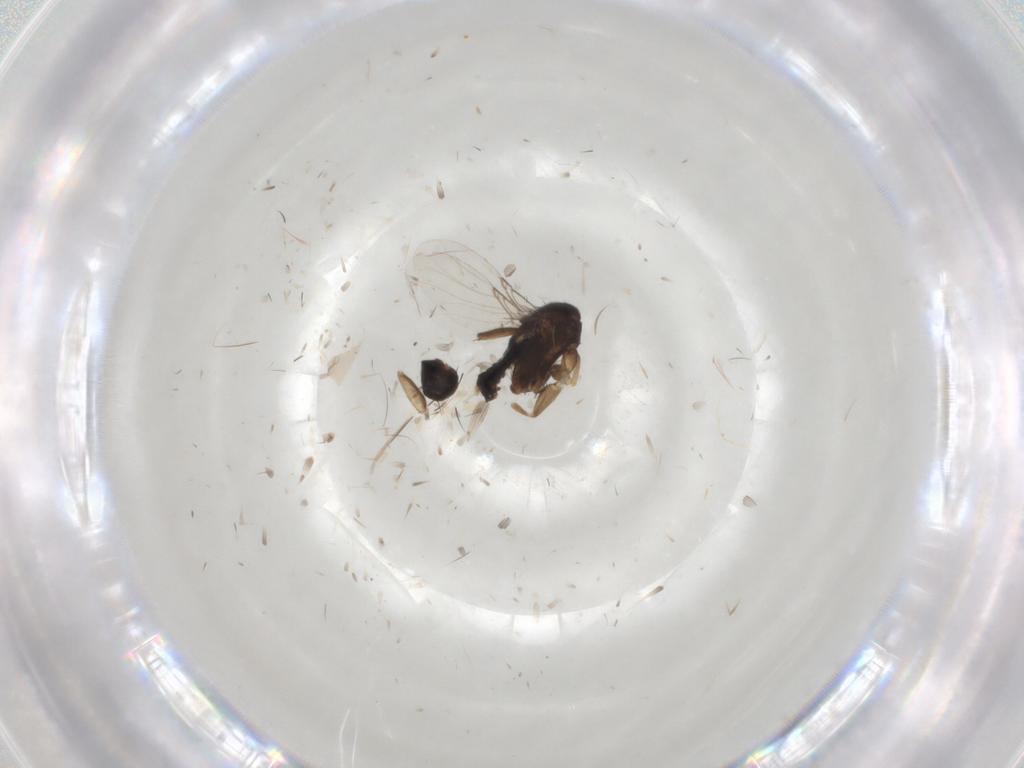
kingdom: Animalia
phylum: Arthropoda
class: Insecta
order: Diptera
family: Phoridae
